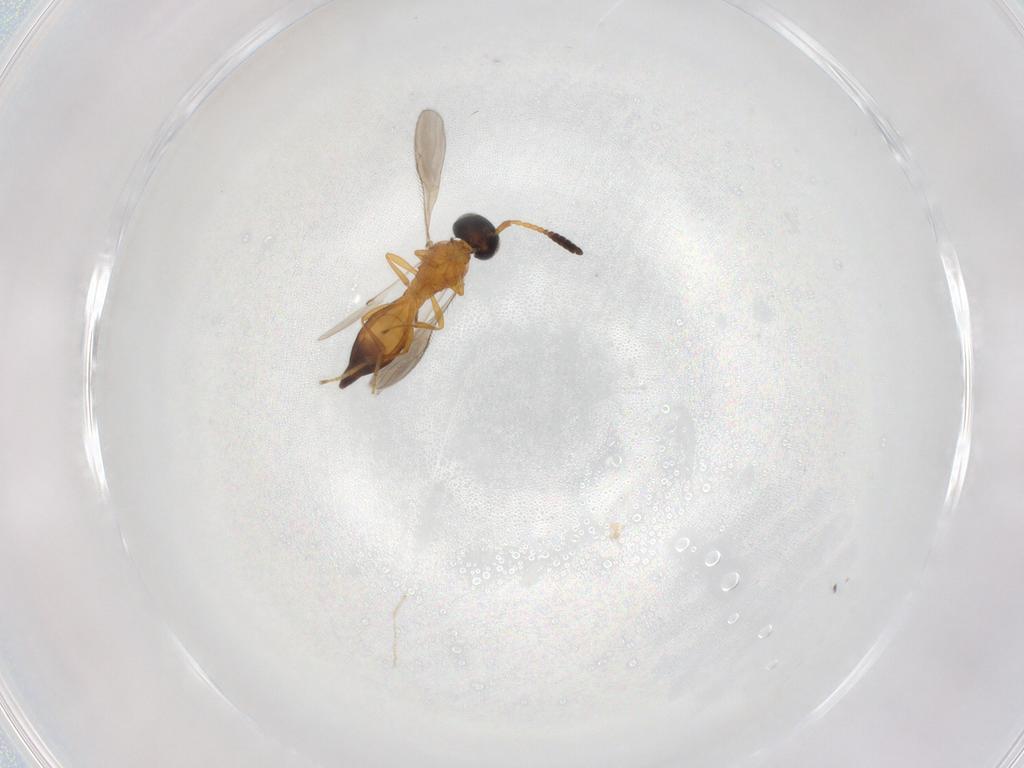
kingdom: Animalia
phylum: Arthropoda
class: Insecta
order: Hymenoptera
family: Scelionidae
